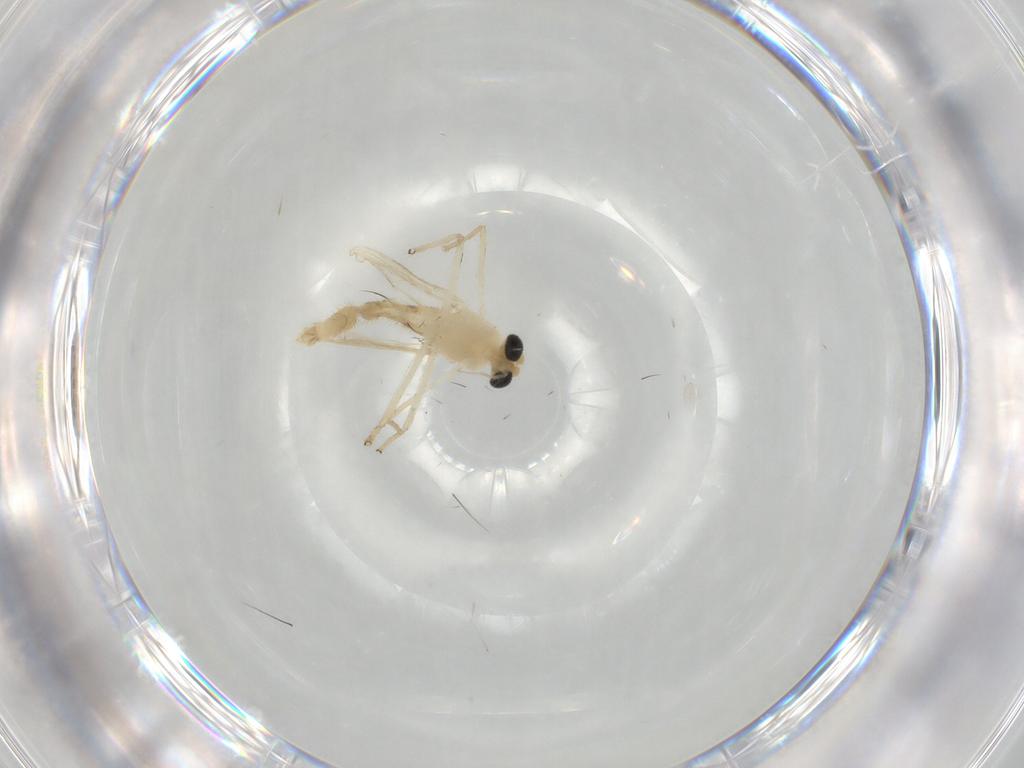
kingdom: Animalia
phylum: Arthropoda
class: Insecta
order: Diptera
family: Chironomidae
